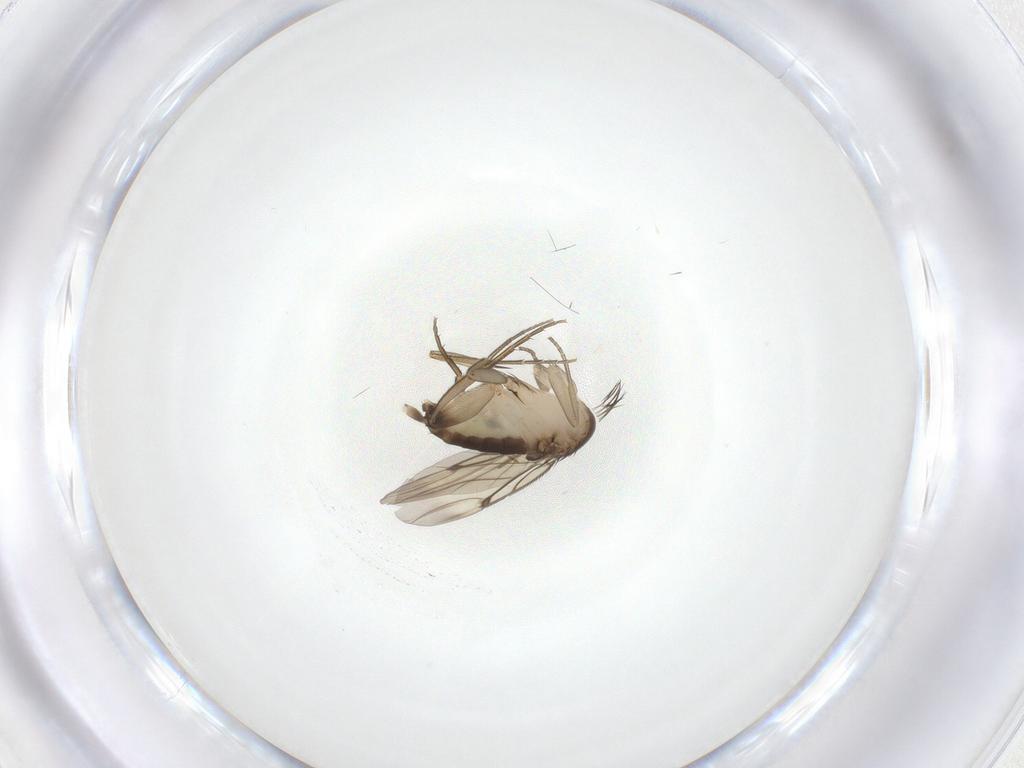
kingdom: Animalia
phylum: Arthropoda
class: Insecta
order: Diptera
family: Phoridae
